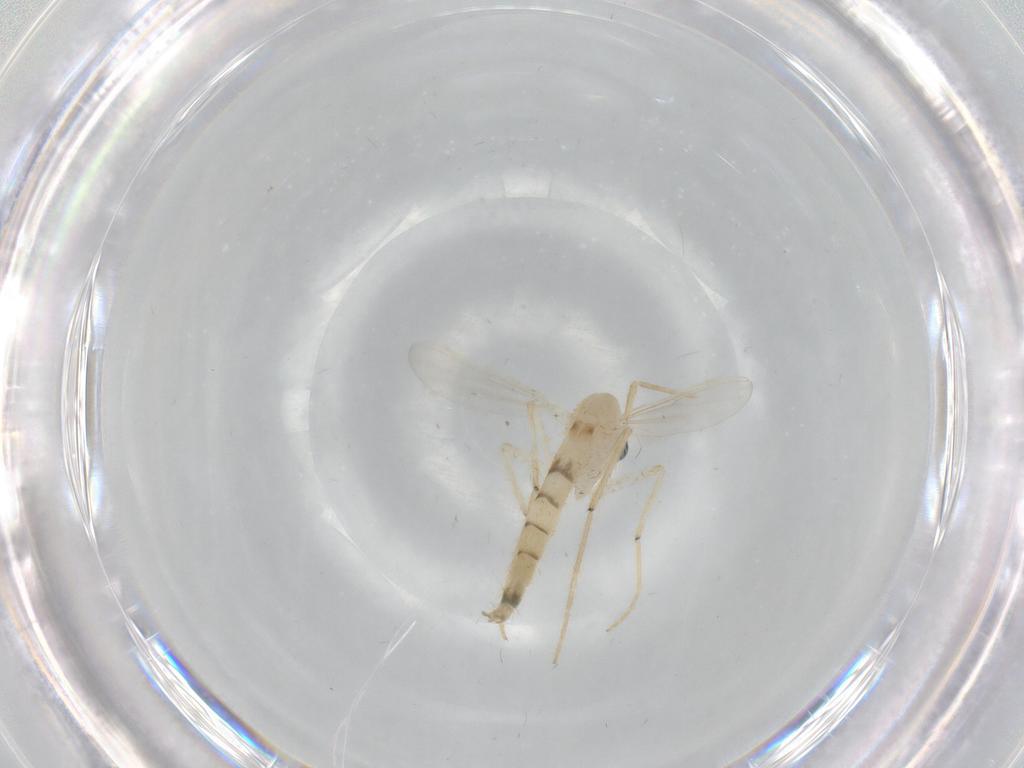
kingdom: Animalia
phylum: Arthropoda
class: Insecta
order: Diptera
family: Chironomidae
